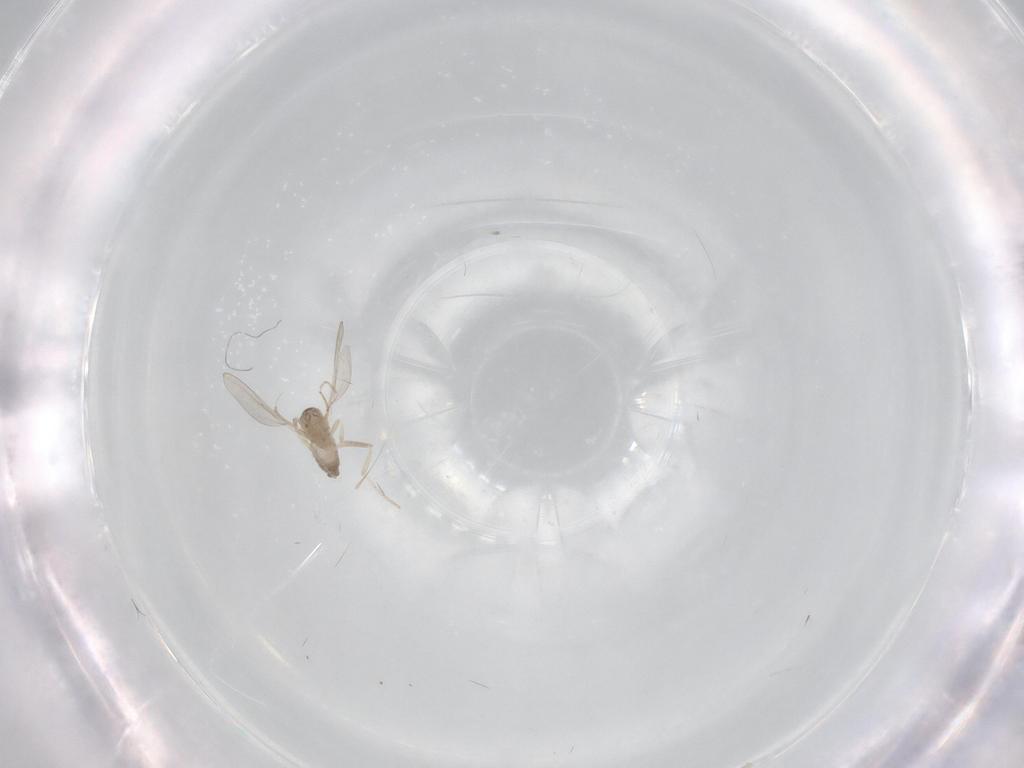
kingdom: Animalia
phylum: Arthropoda
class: Insecta
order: Diptera
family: Cecidomyiidae
